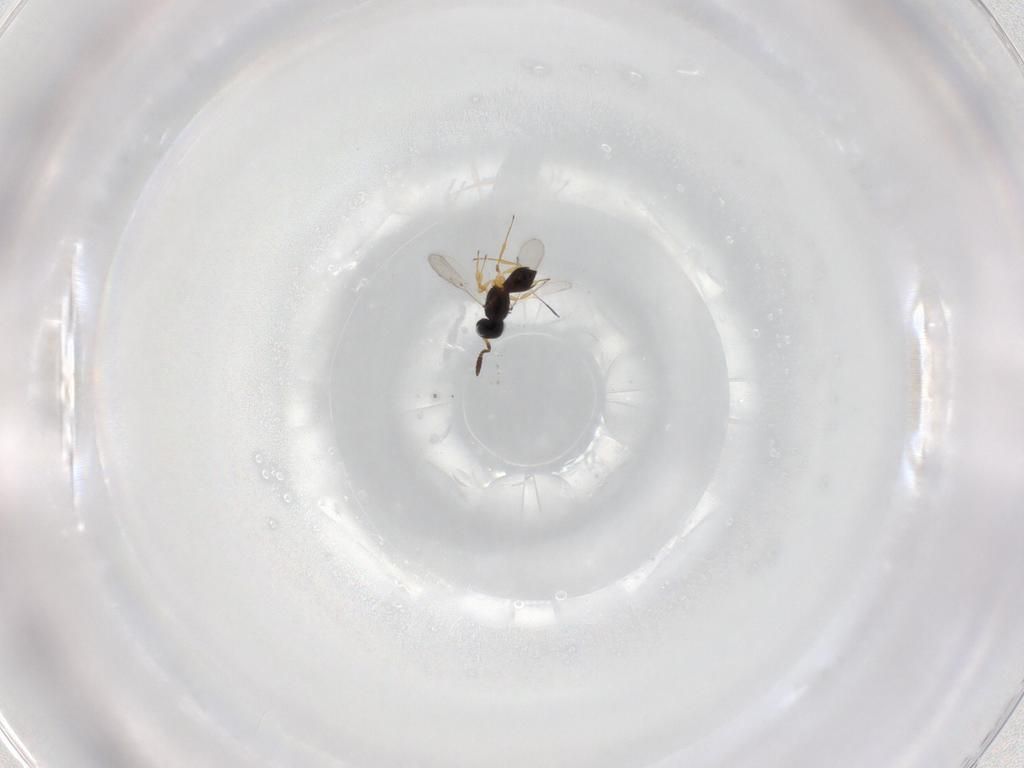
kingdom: Animalia
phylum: Arthropoda
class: Insecta
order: Hymenoptera
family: Scelionidae
